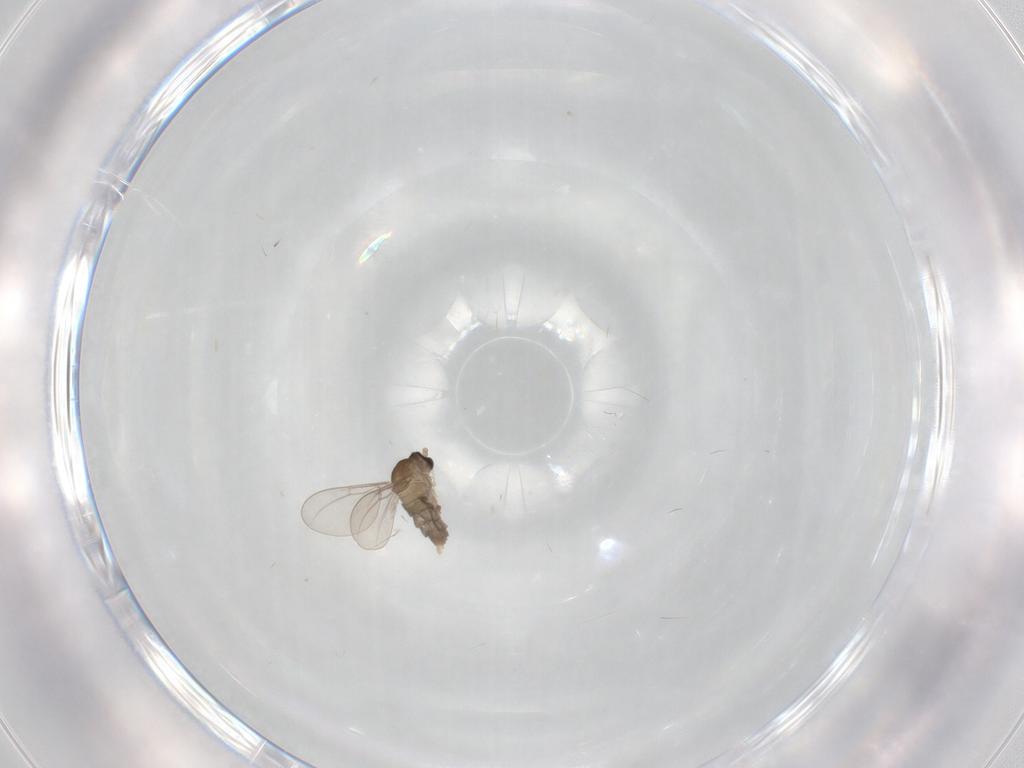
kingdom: Animalia
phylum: Arthropoda
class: Insecta
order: Diptera
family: Cecidomyiidae
